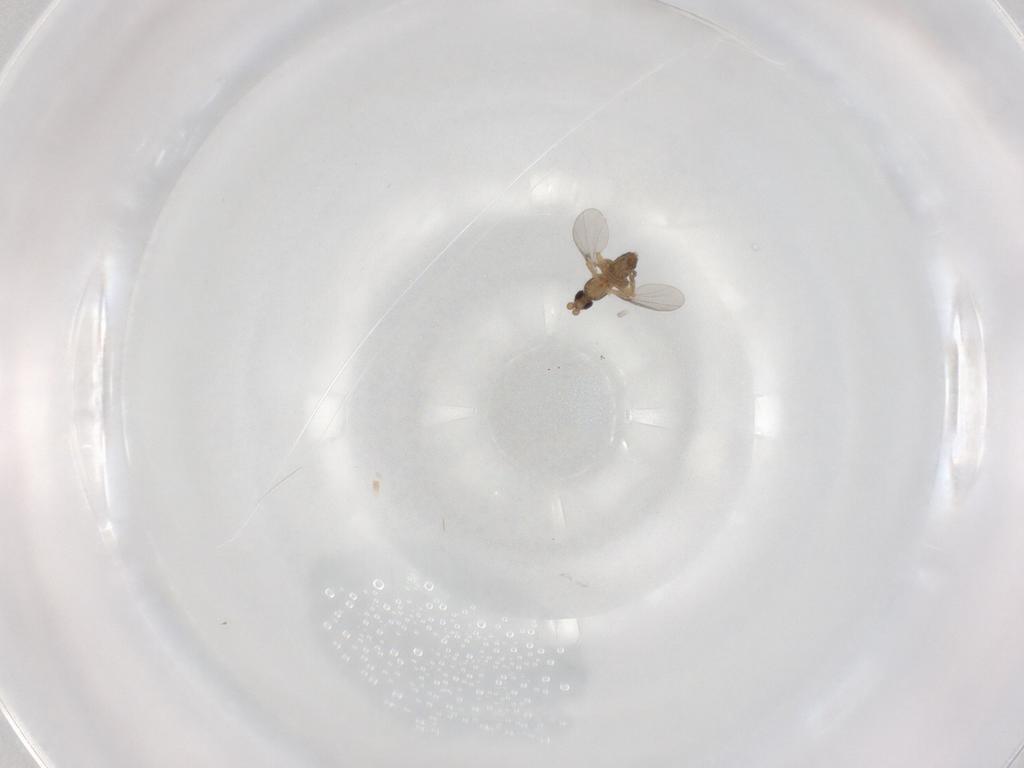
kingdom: Animalia
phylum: Arthropoda
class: Insecta
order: Diptera
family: Phoridae
